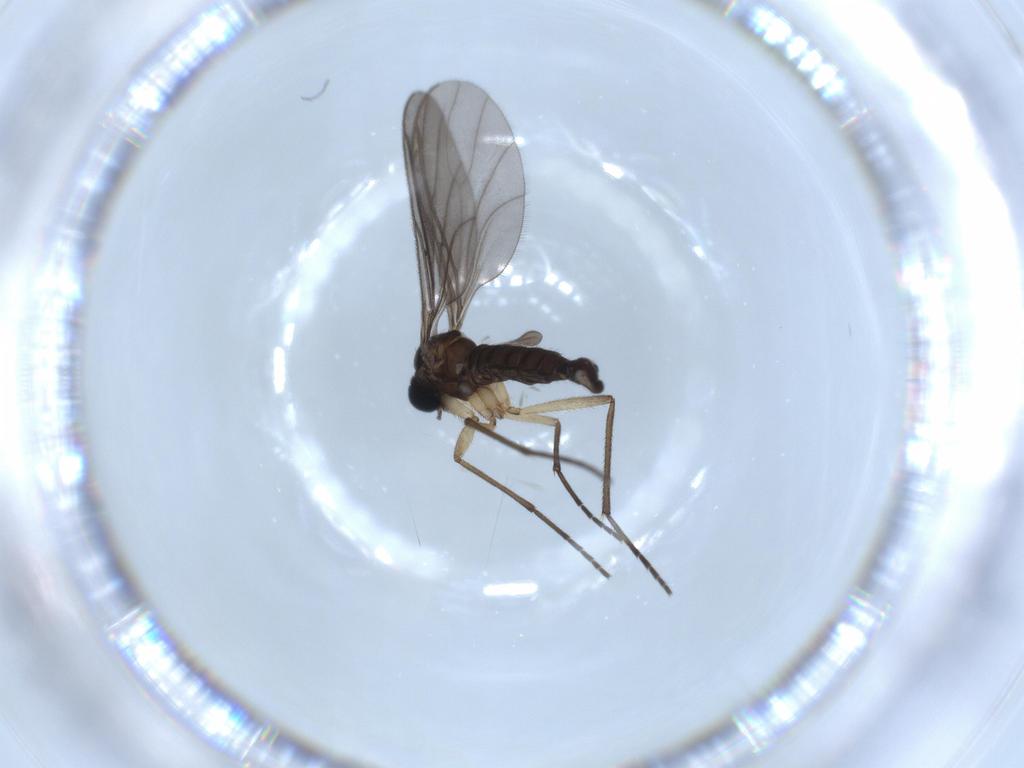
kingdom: Animalia
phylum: Arthropoda
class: Insecta
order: Diptera
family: Sciaridae
